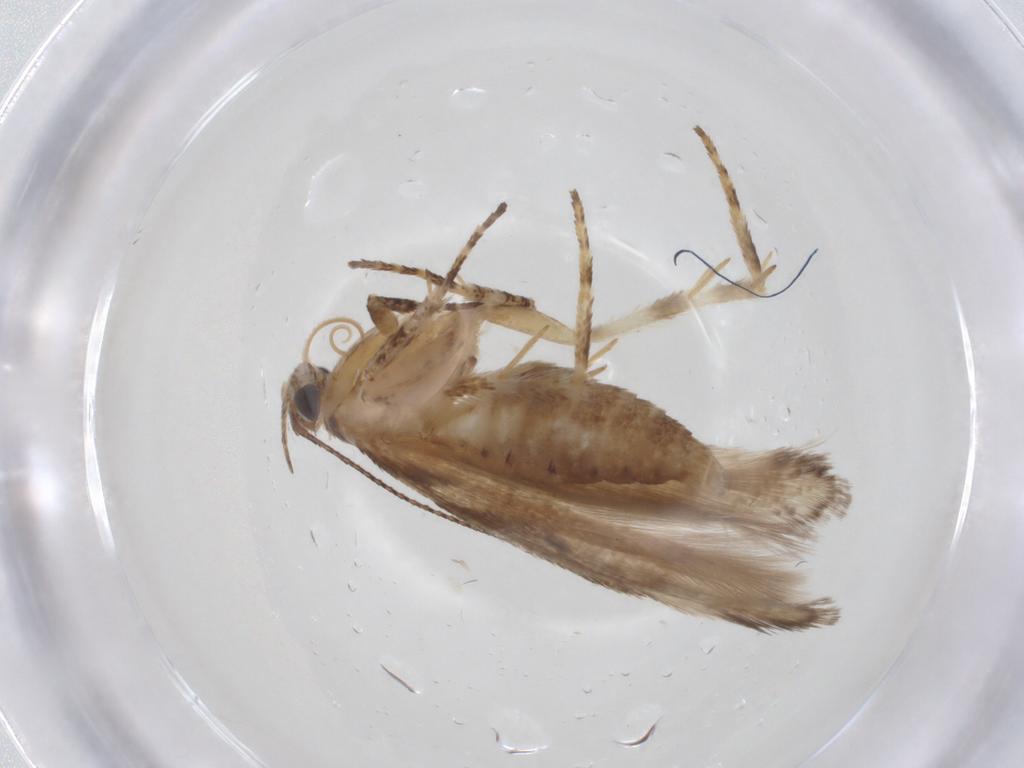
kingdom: Animalia
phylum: Arthropoda
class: Insecta
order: Lepidoptera
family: Gelechiidae
